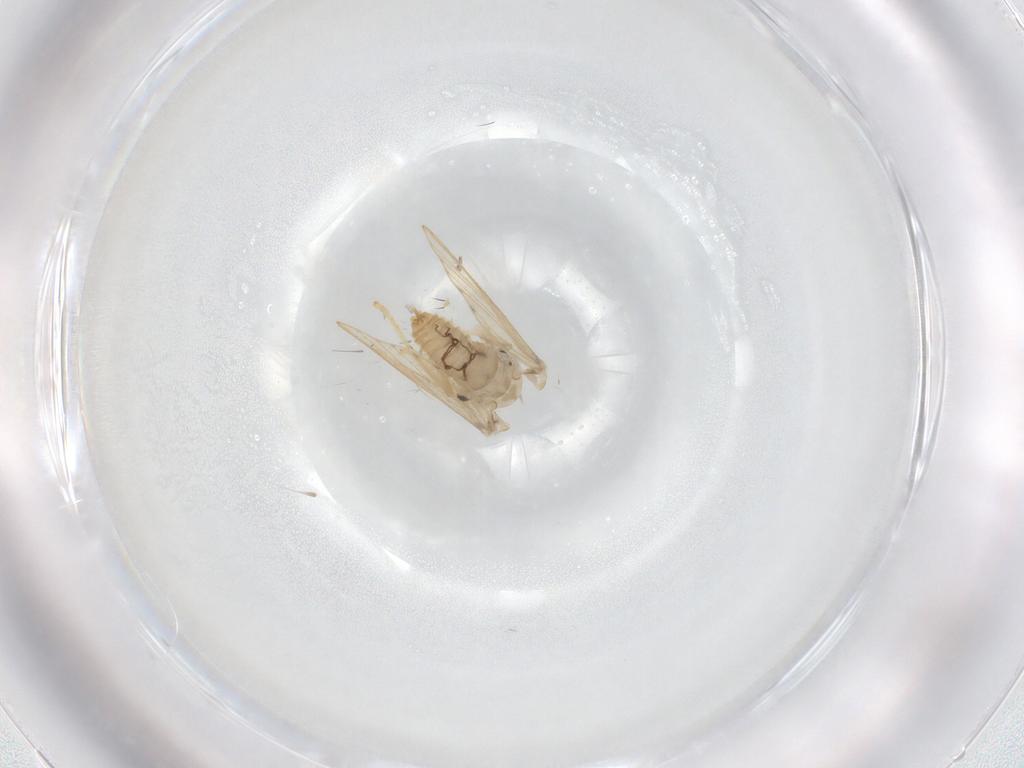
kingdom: Animalia
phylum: Arthropoda
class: Insecta
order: Diptera
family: Psychodidae
